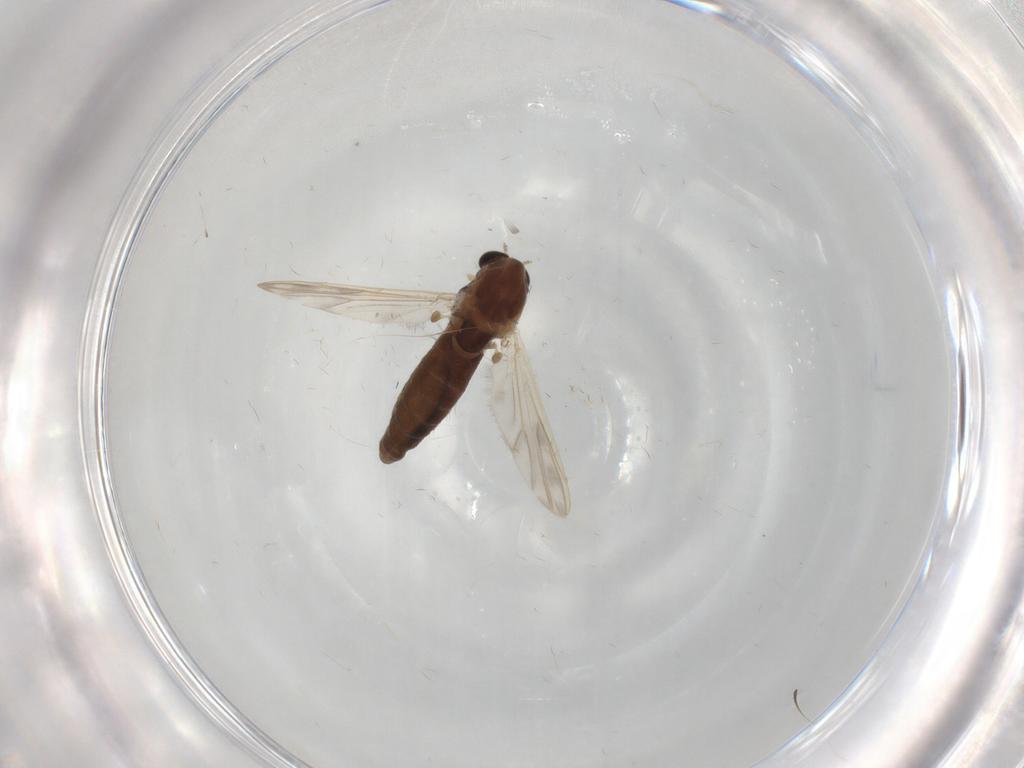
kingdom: Animalia
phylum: Arthropoda
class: Insecta
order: Diptera
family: Chironomidae
